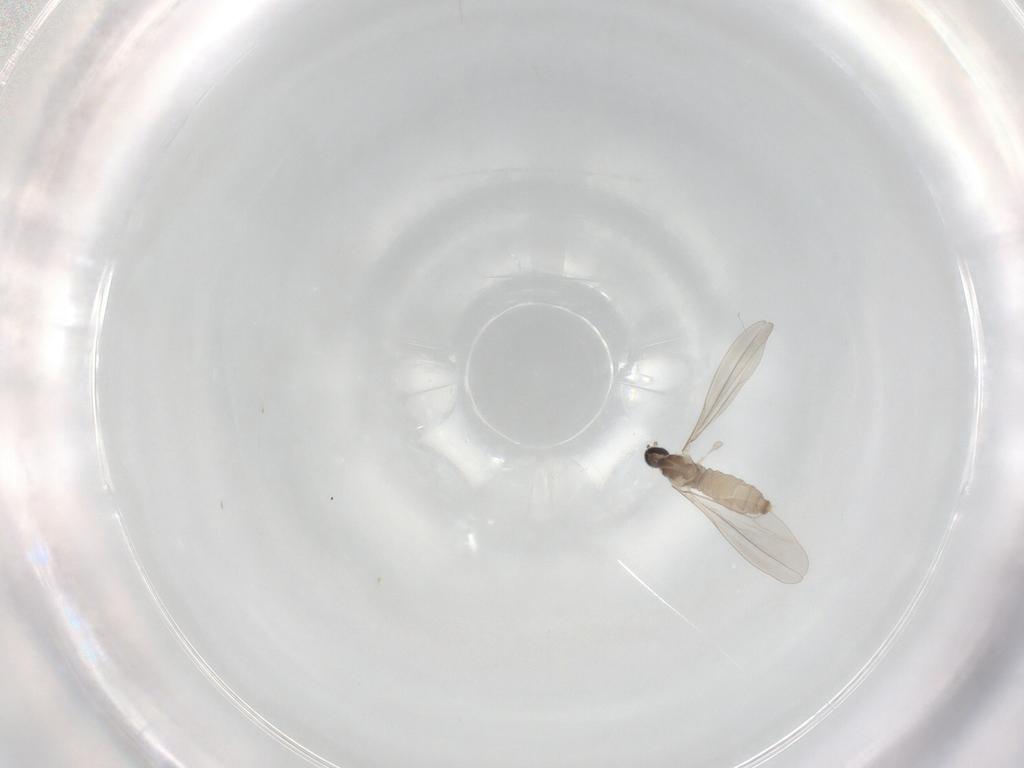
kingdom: Animalia
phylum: Arthropoda
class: Insecta
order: Diptera
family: Cecidomyiidae
